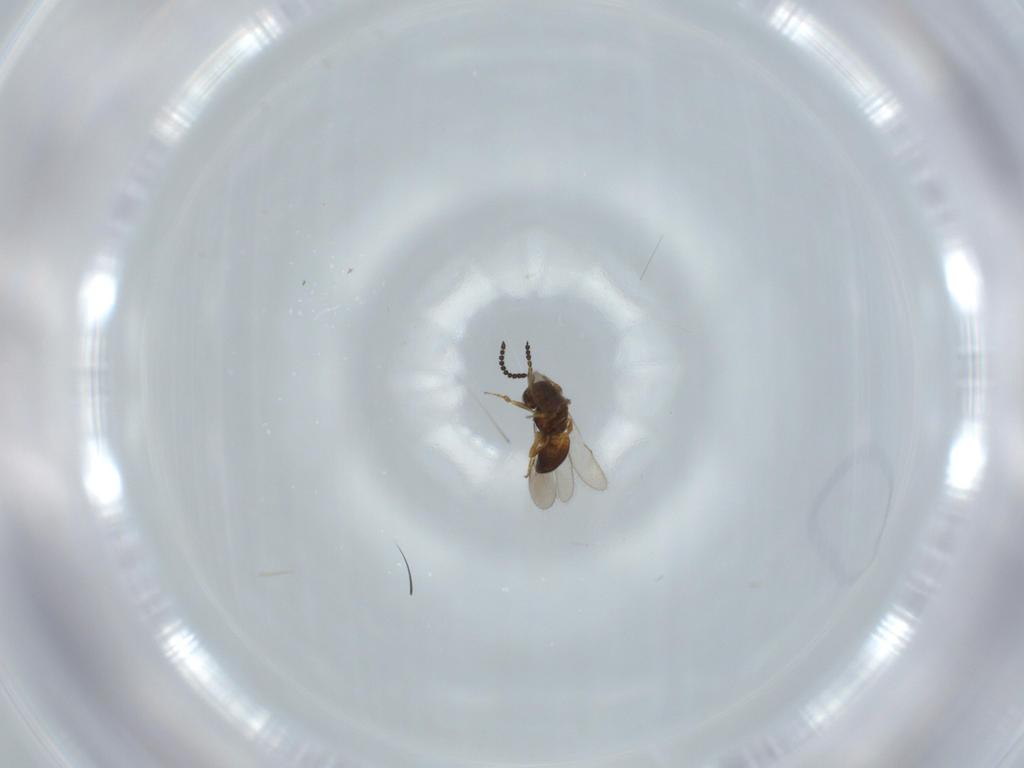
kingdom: Animalia
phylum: Arthropoda
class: Insecta
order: Hymenoptera
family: Scelionidae
